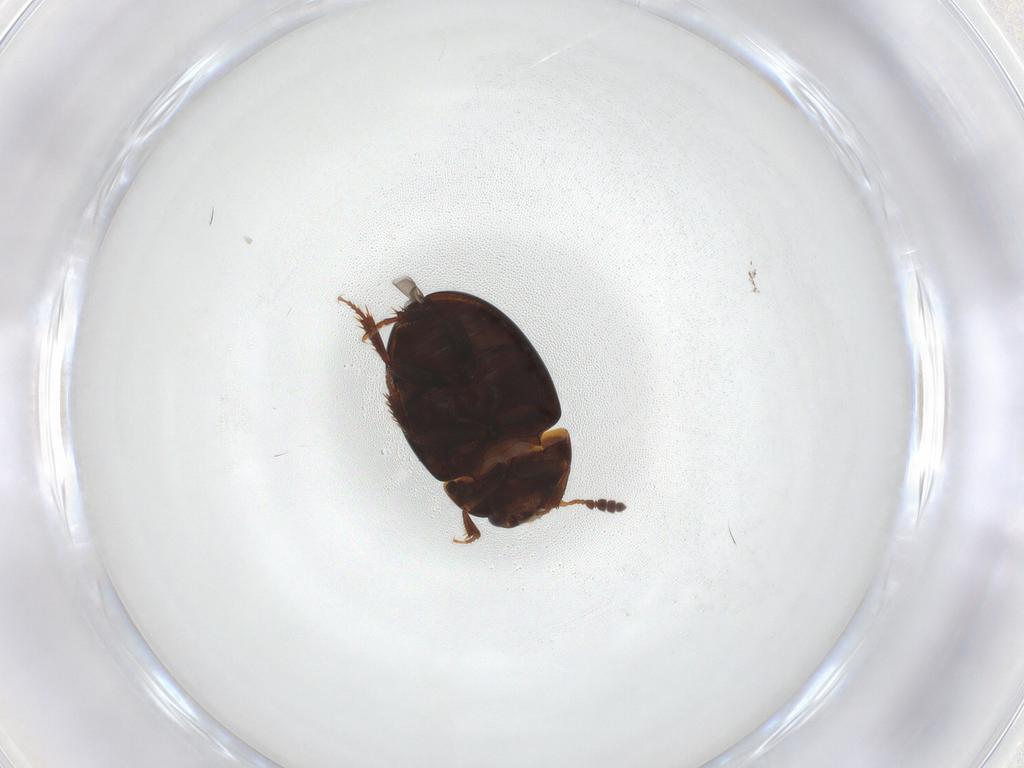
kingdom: Animalia
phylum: Arthropoda
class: Insecta
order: Coleoptera
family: Leiodidae
